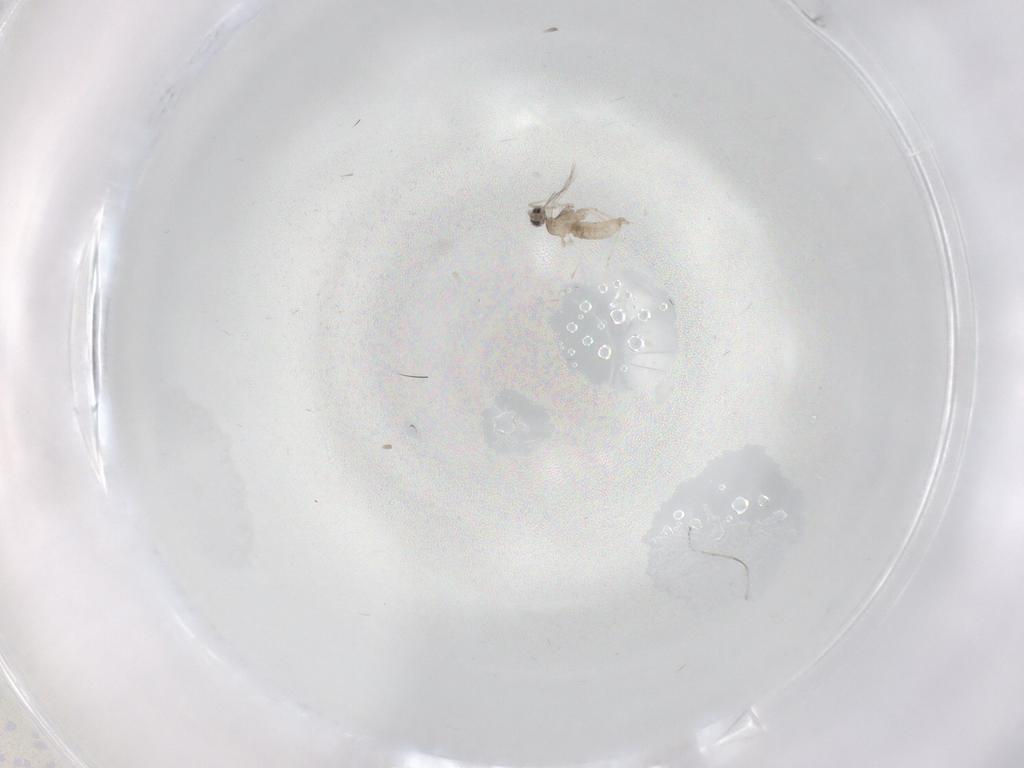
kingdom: Animalia
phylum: Arthropoda
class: Insecta
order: Diptera
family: Cecidomyiidae
